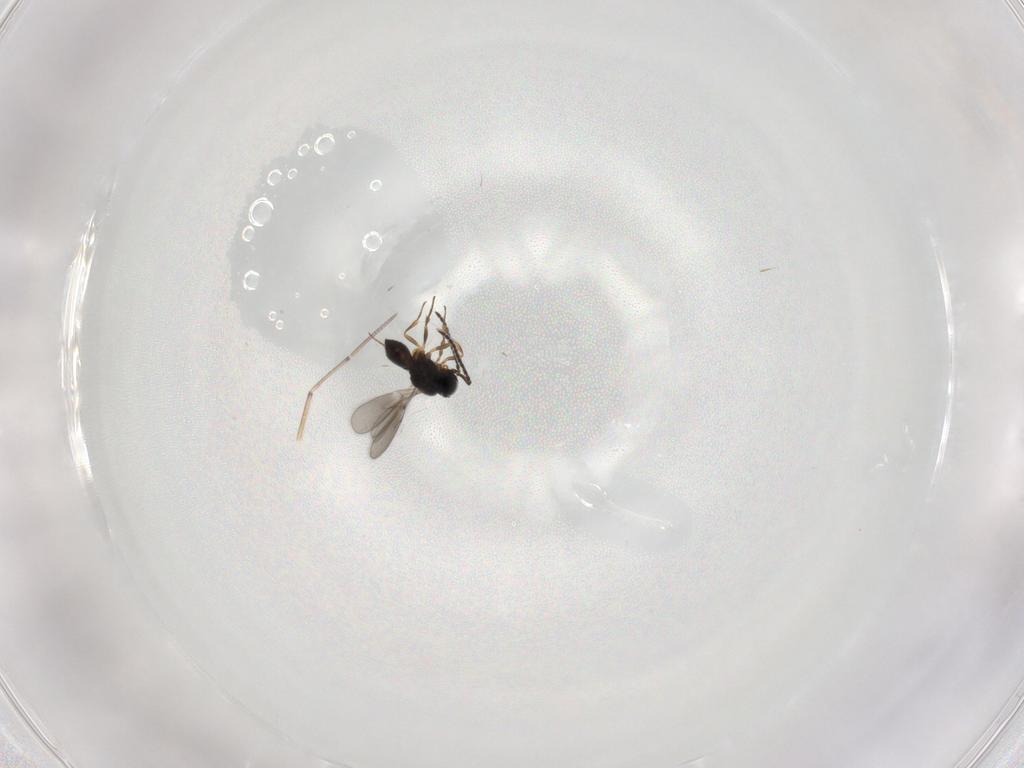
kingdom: Animalia
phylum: Arthropoda
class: Insecta
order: Hymenoptera
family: Scelionidae
